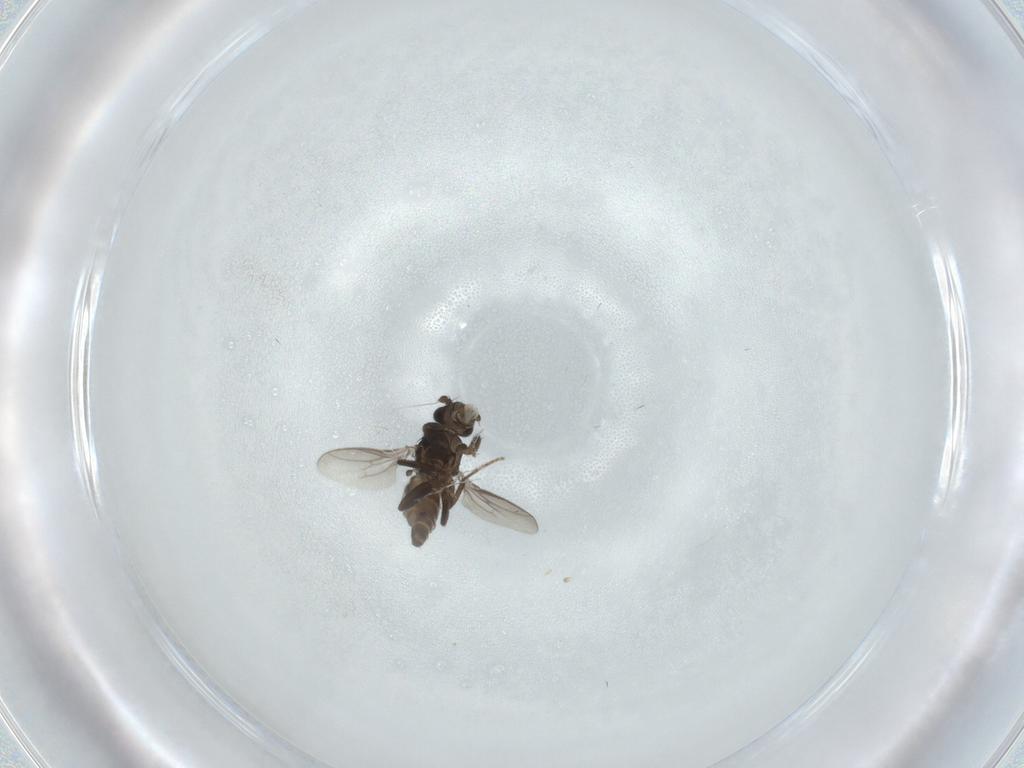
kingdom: Animalia
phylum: Arthropoda
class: Insecta
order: Diptera
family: Sphaeroceridae
